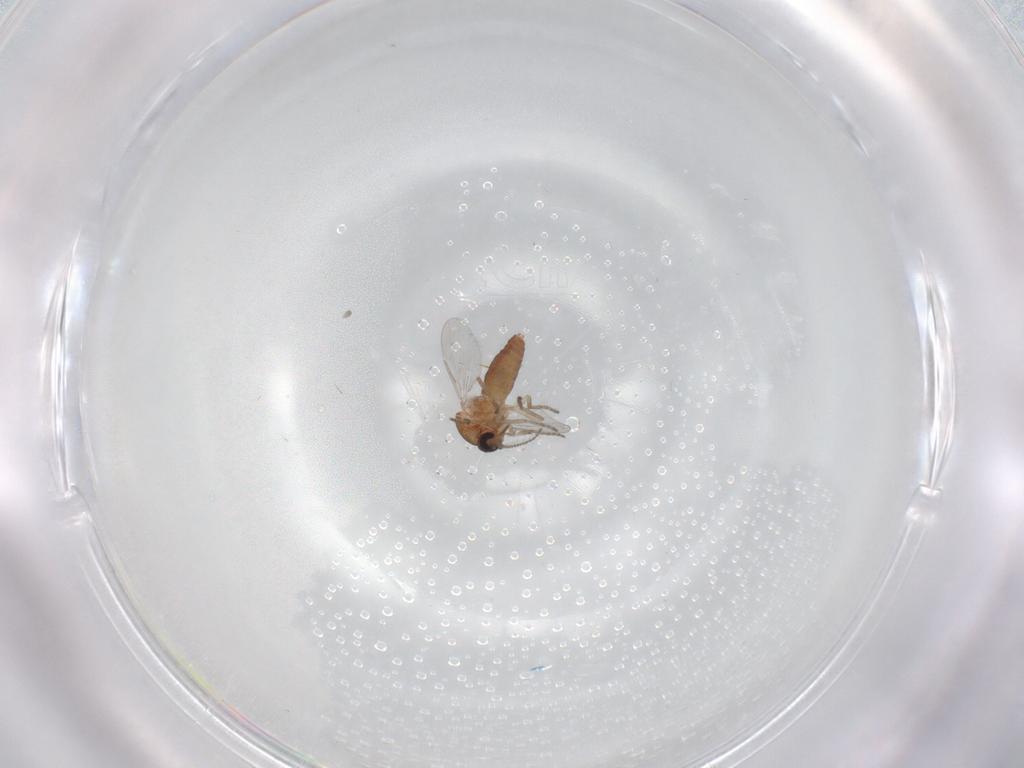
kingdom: Animalia
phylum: Arthropoda
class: Insecta
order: Diptera
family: Ceratopogonidae
